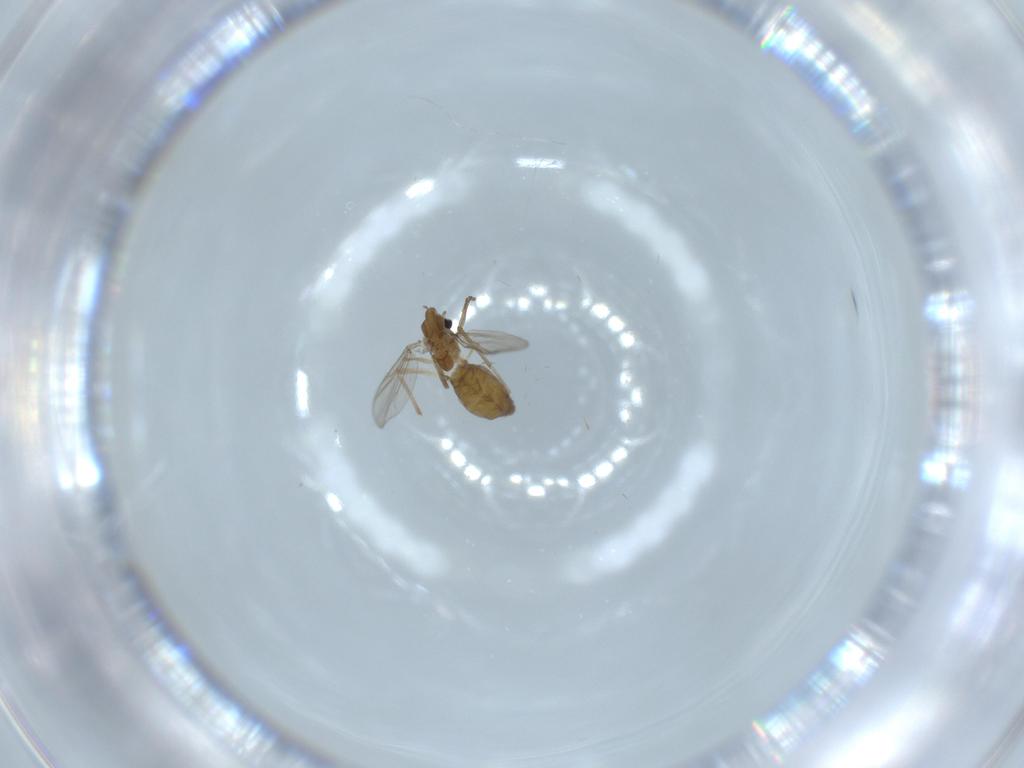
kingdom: Animalia
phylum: Arthropoda
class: Insecta
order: Diptera
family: Chironomidae
